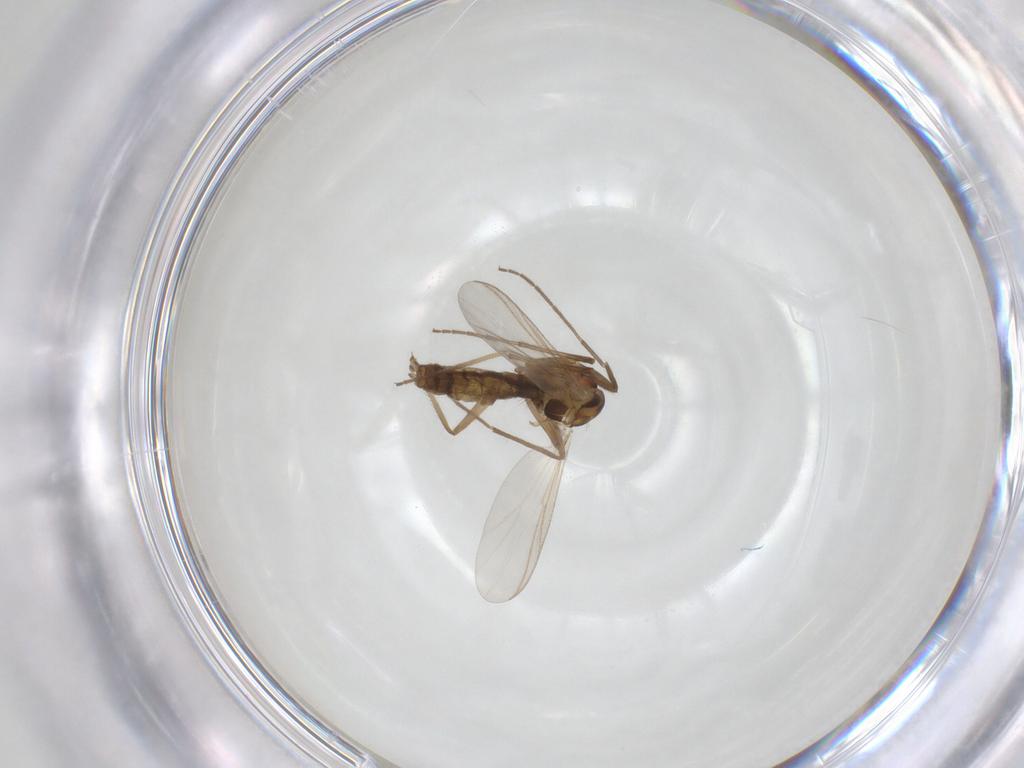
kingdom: Animalia
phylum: Arthropoda
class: Insecta
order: Diptera
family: Chironomidae
